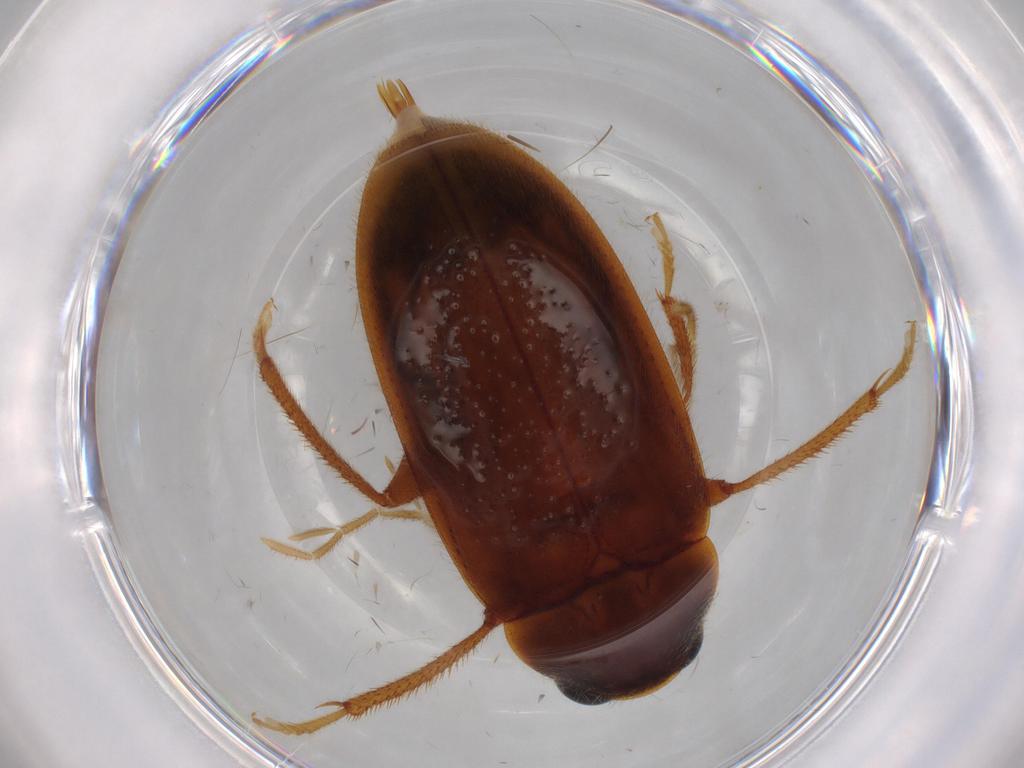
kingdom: Animalia
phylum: Arthropoda
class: Insecta
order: Coleoptera
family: Ptilodactylidae
